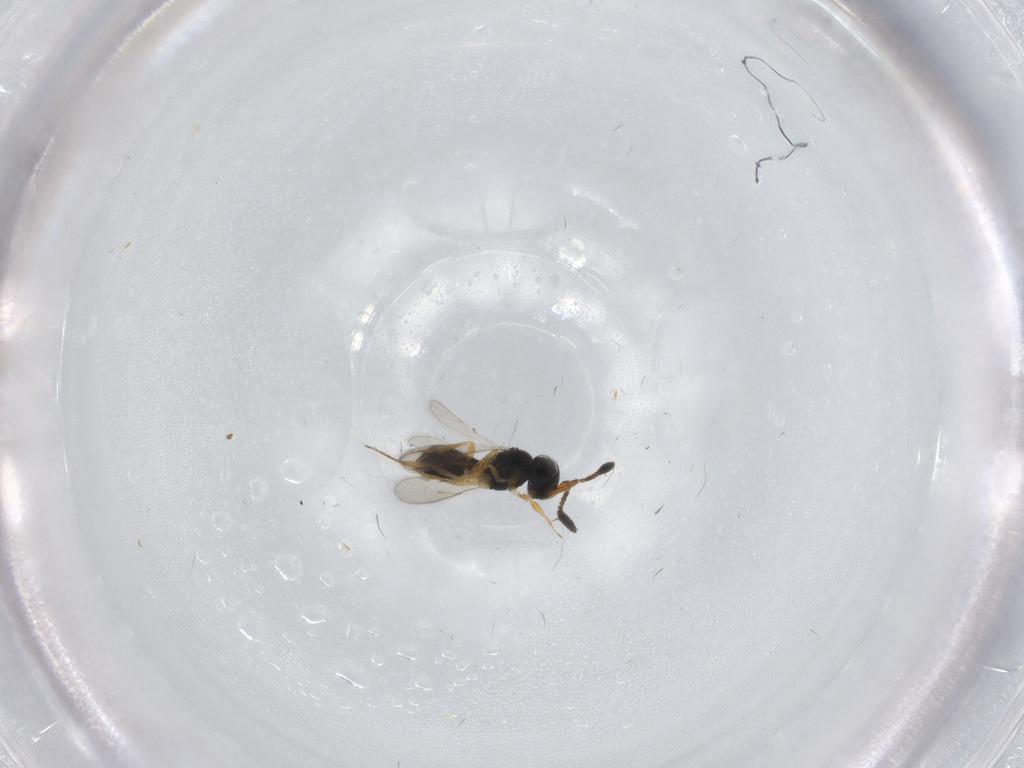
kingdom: Animalia
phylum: Arthropoda
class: Insecta
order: Hymenoptera
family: Scelionidae
